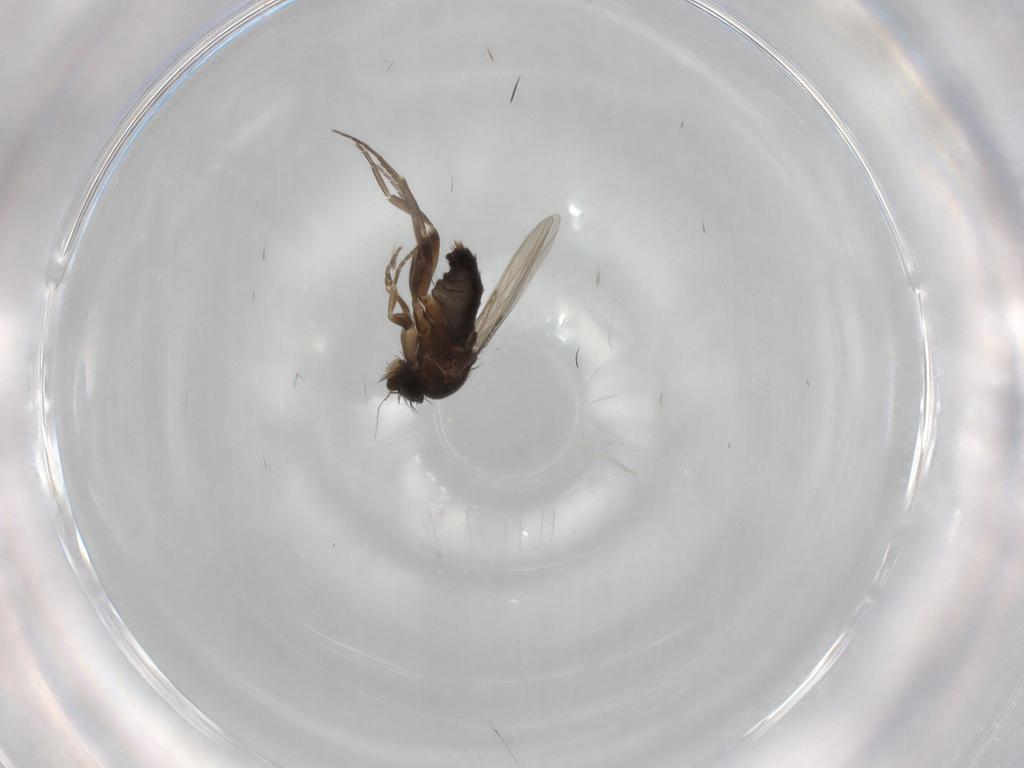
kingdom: Animalia
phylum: Arthropoda
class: Insecta
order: Diptera
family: Phoridae
